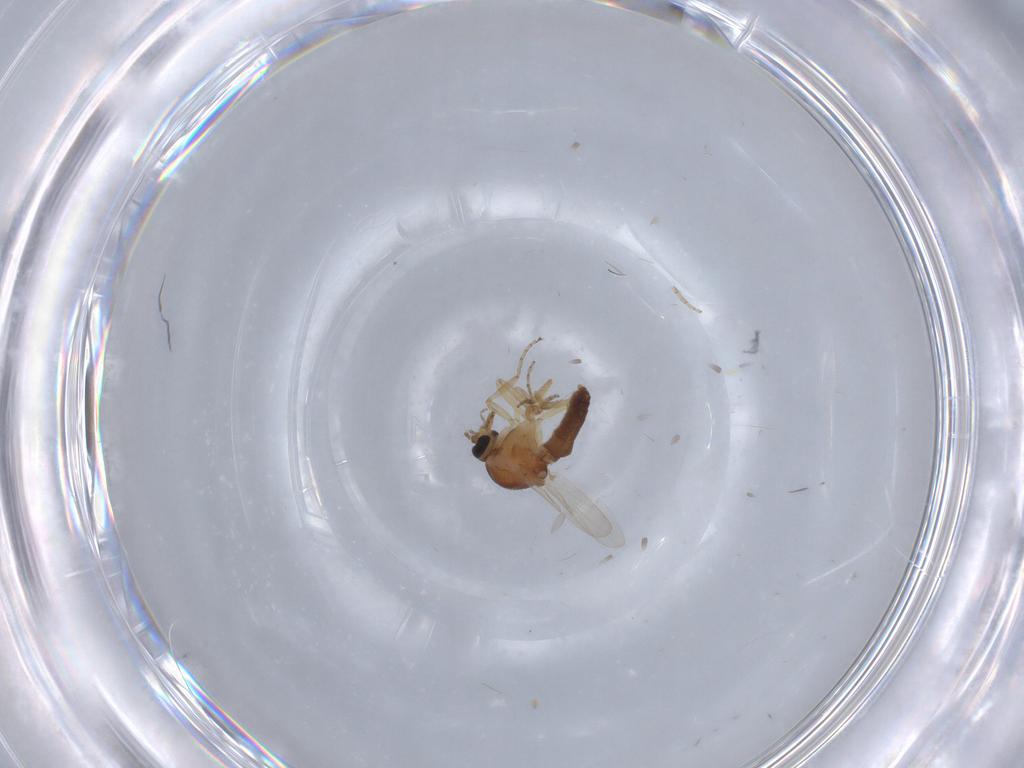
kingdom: Animalia
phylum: Arthropoda
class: Insecta
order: Diptera
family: Ceratopogonidae
